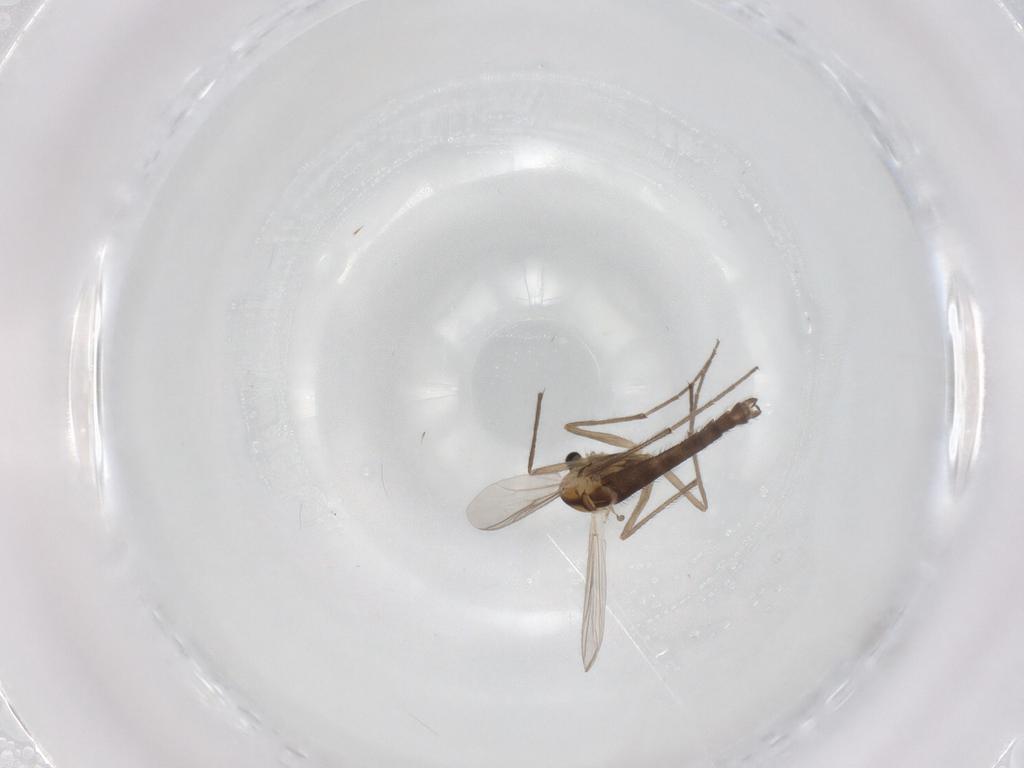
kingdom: Animalia
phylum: Arthropoda
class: Insecta
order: Diptera
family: Chironomidae
